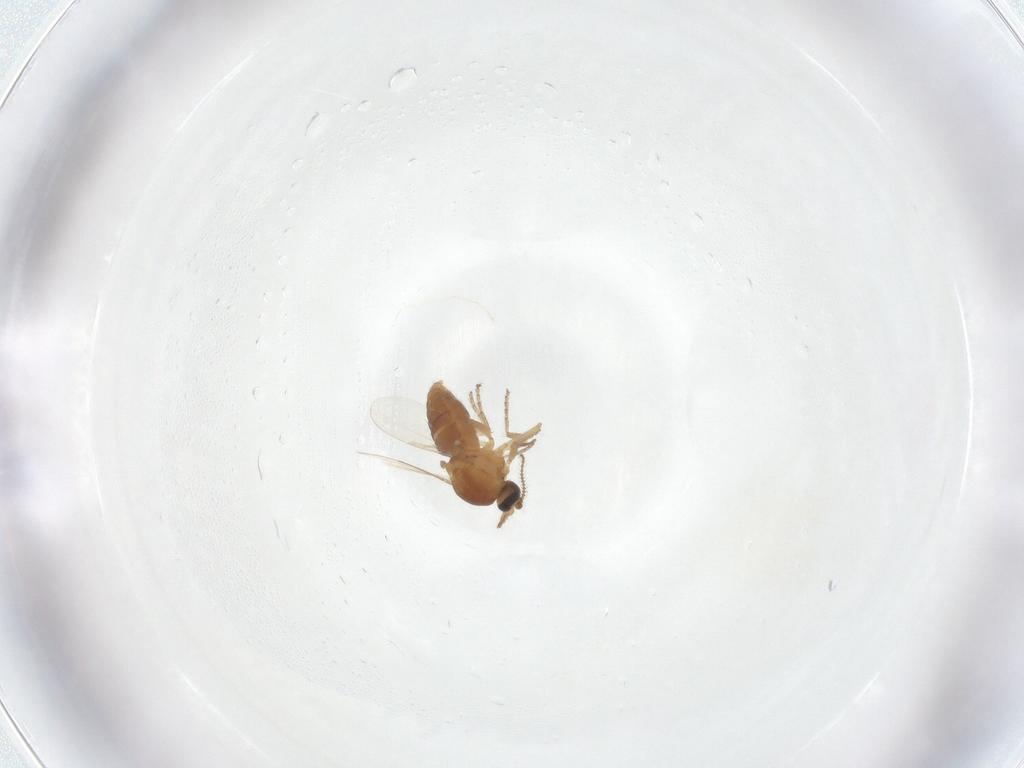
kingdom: Animalia
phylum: Arthropoda
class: Insecta
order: Diptera
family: Ceratopogonidae
